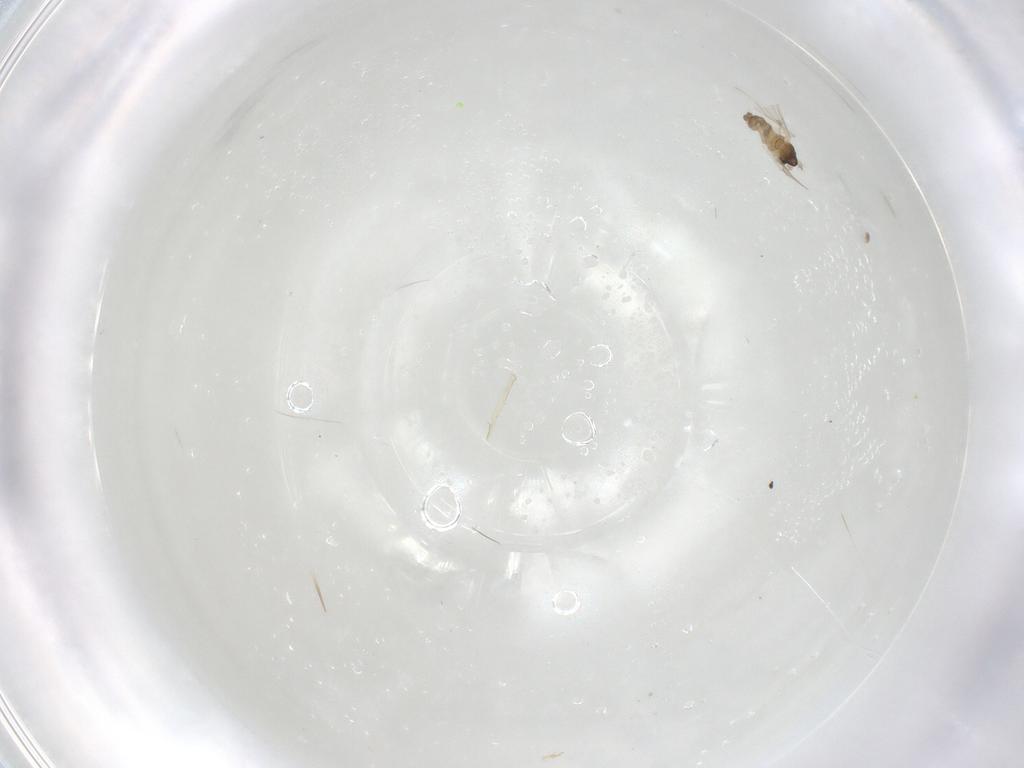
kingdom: Animalia
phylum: Arthropoda
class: Insecta
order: Diptera
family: Cecidomyiidae
